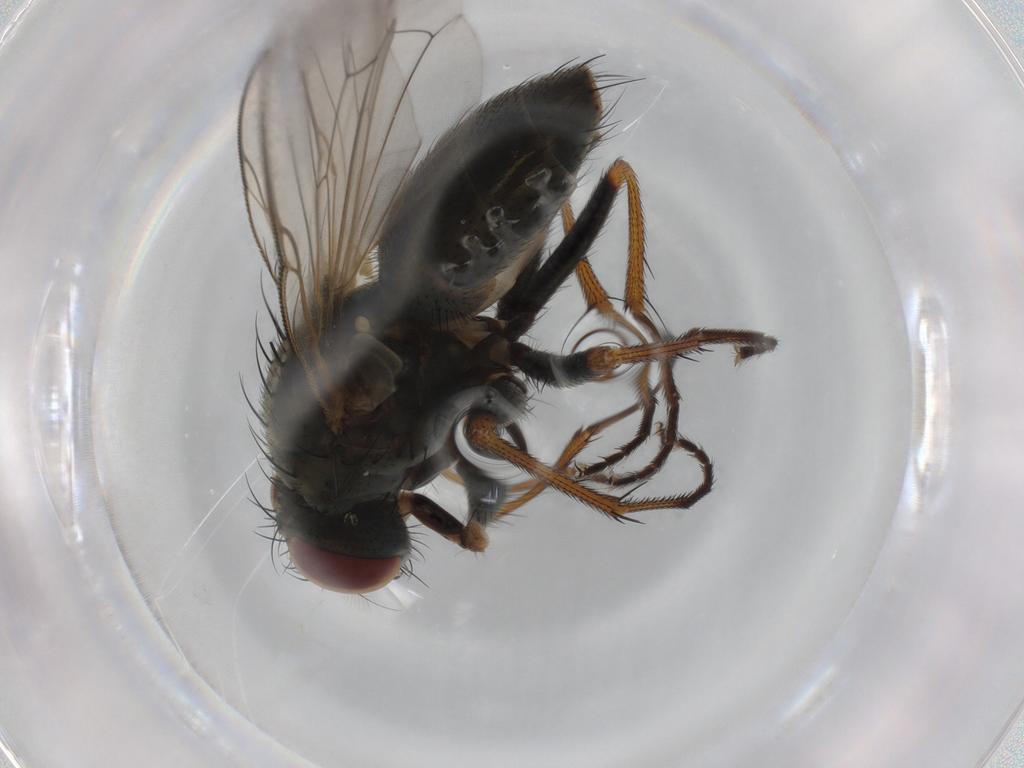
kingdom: Animalia
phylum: Arthropoda
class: Insecta
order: Diptera
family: Muscidae
